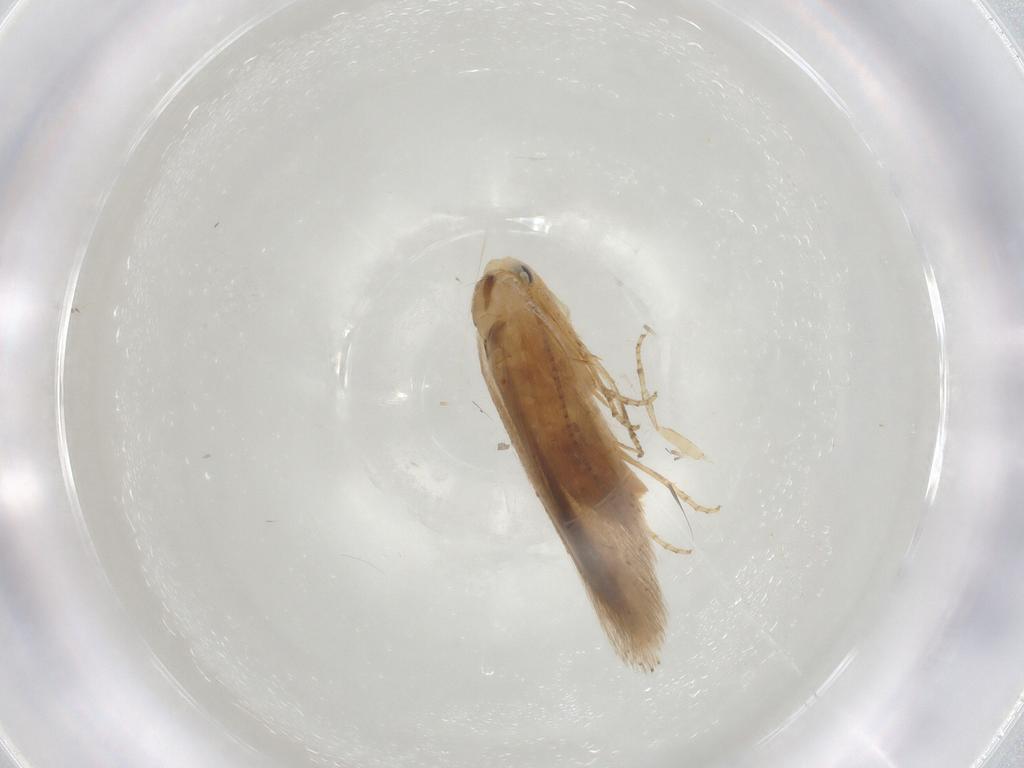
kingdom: Animalia
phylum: Arthropoda
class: Insecta
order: Lepidoptera
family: Bucculatricidae
